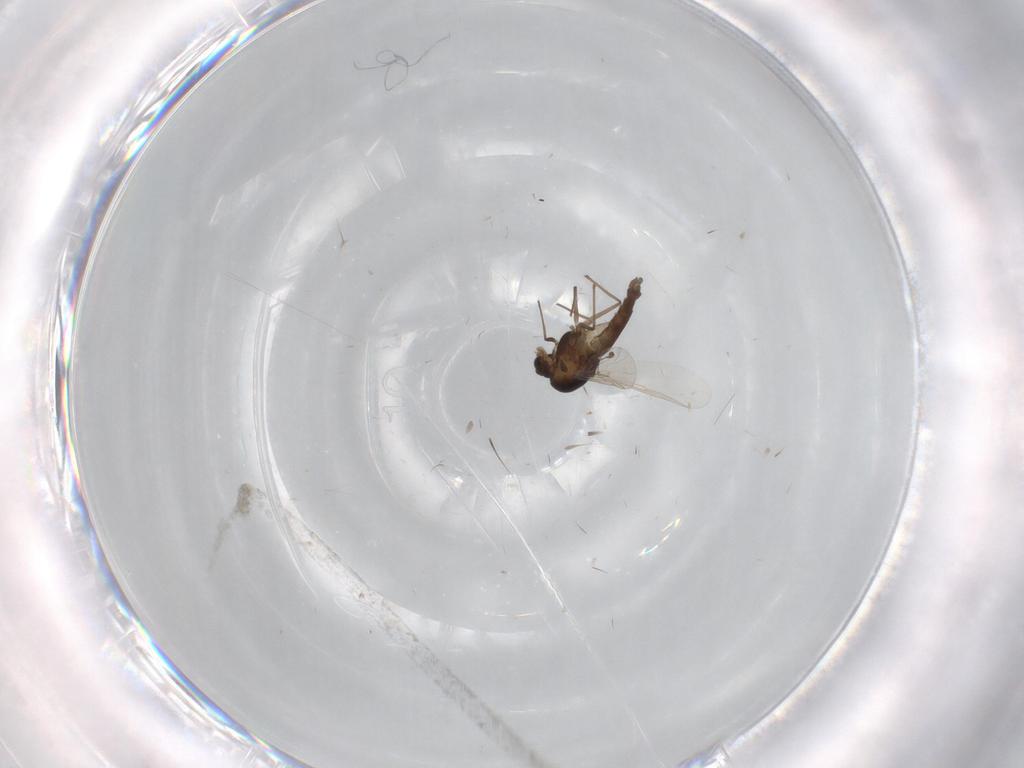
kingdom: Animalia
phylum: Arthropoda
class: Insecta
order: Diptera
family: Chironomidae
